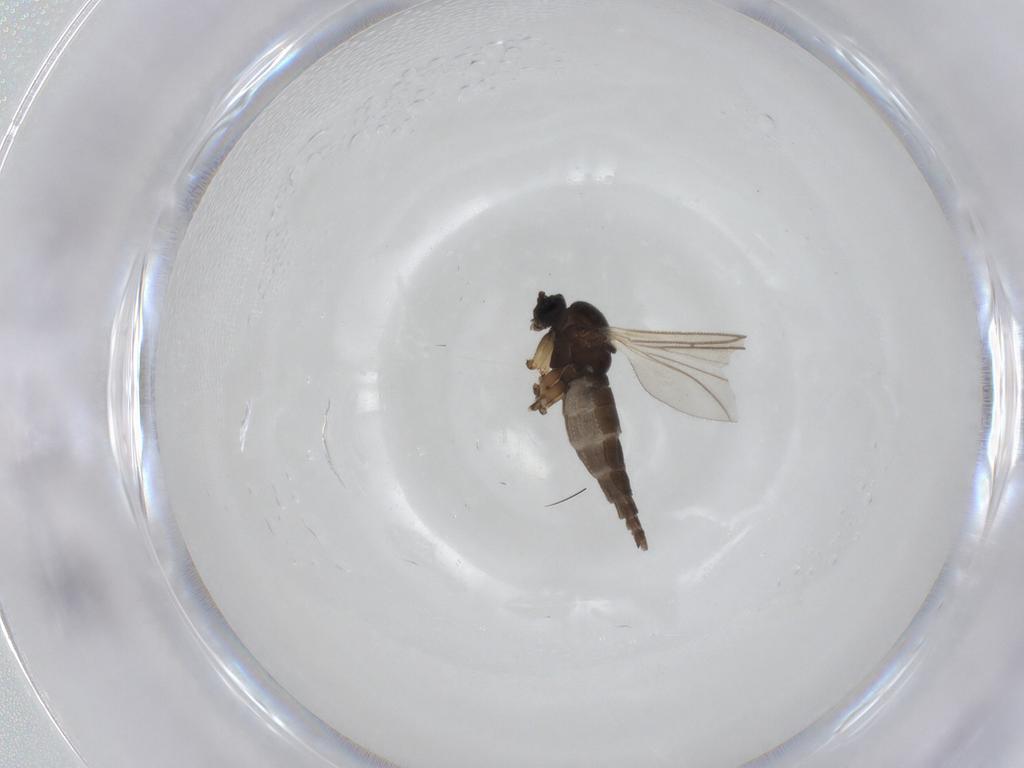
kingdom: Animalia
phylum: Arthropoda
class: Insecta
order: Diptera
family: Sciaridae
